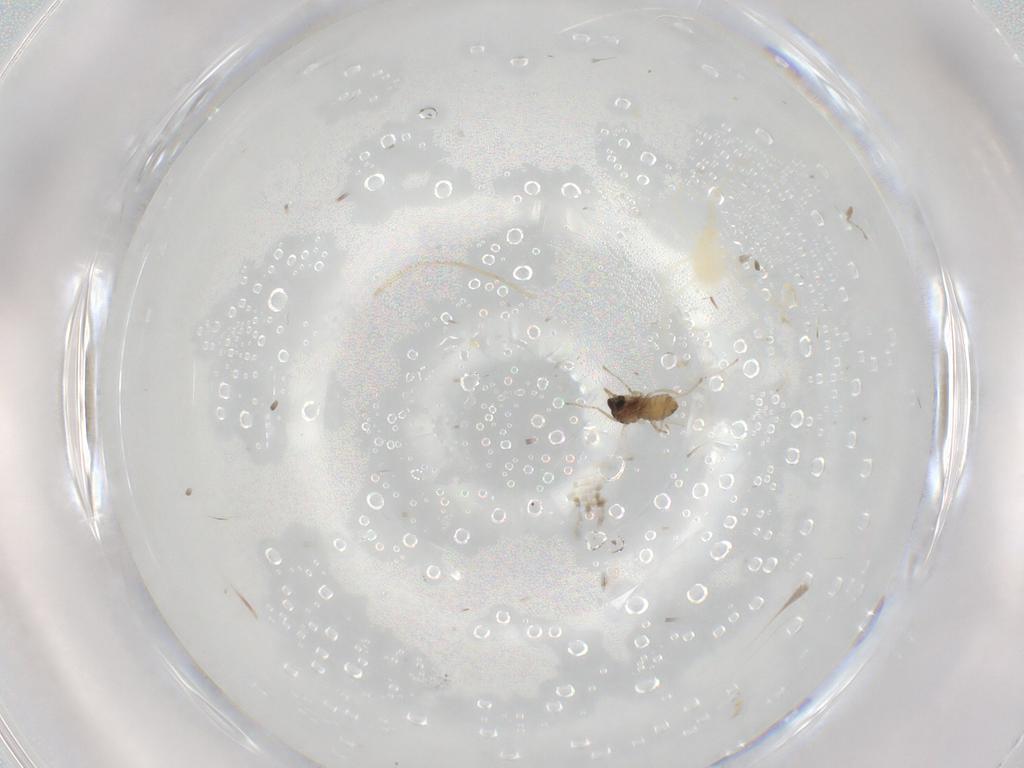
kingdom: Animalia
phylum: Arthropoda
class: Insecta
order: Diptera
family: Cecidomyiidae
